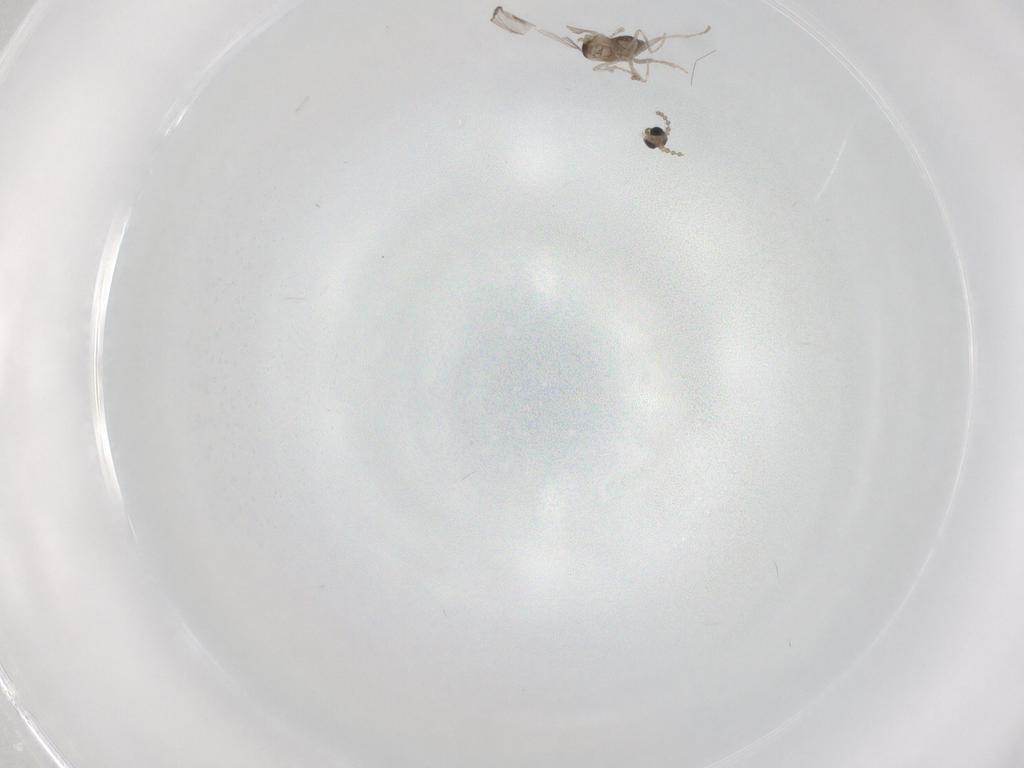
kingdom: Animalia
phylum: Arthropoda
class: Insecta
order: Diptera
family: Cecidomyiidae
